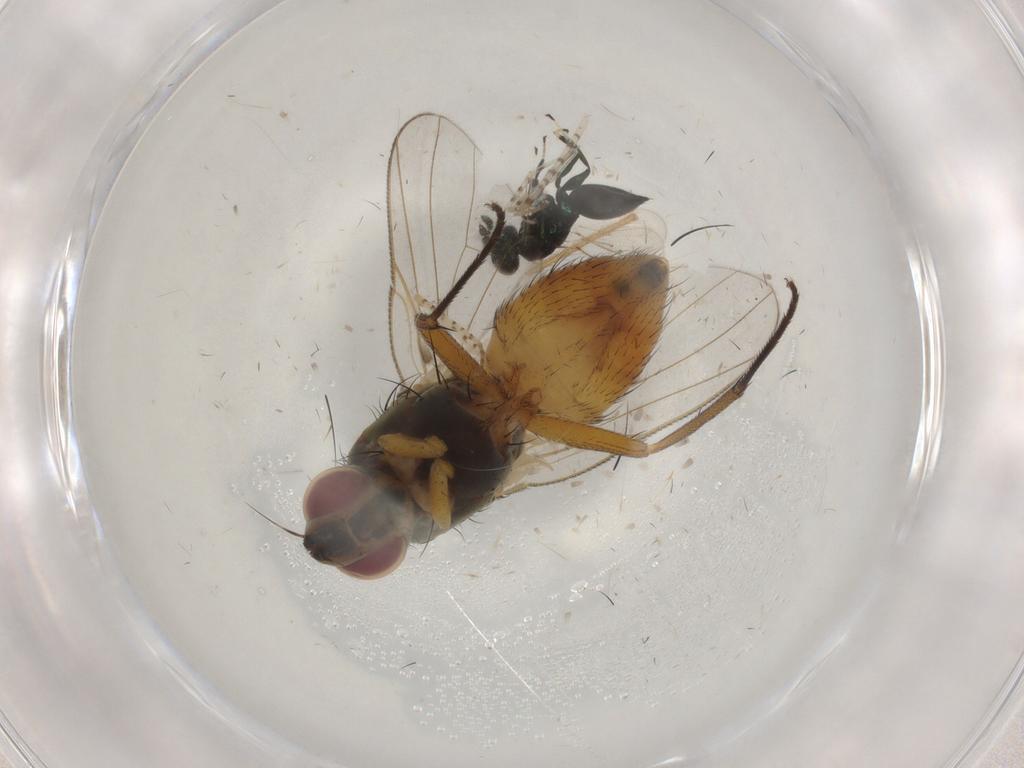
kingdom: Animalia
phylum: Arthropoda
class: Insecta
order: Diptera
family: Muscidae
